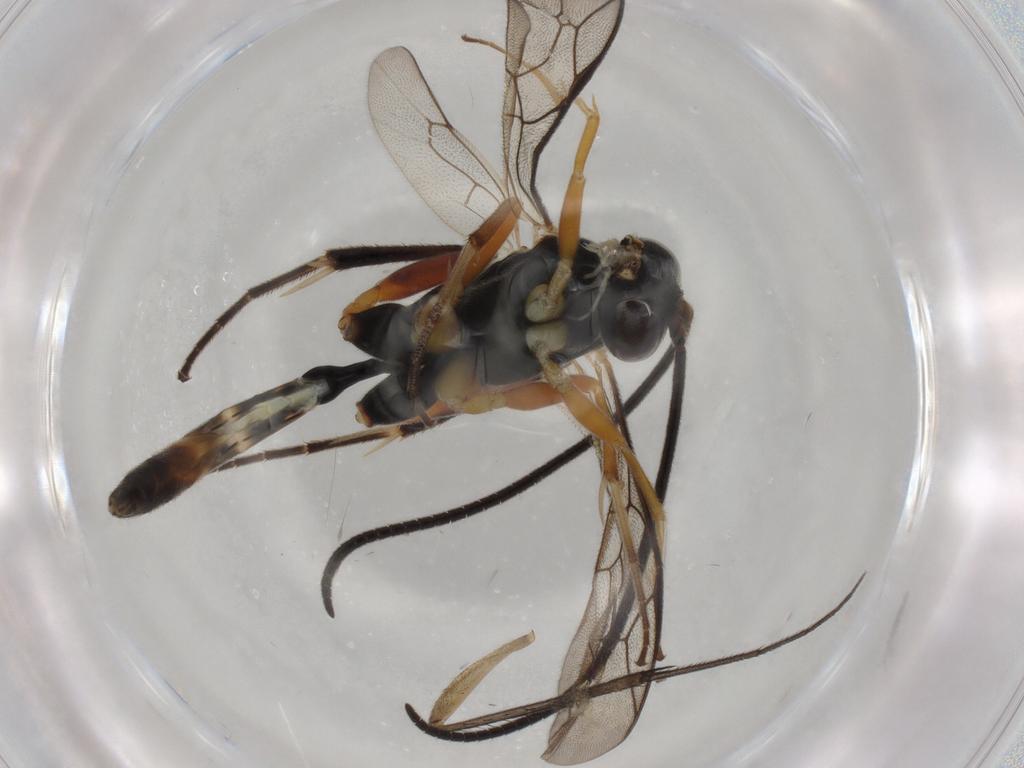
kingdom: Animalia
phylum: Arthropoda
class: Insecta
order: Hymenoptera
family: Ichneumonidae
